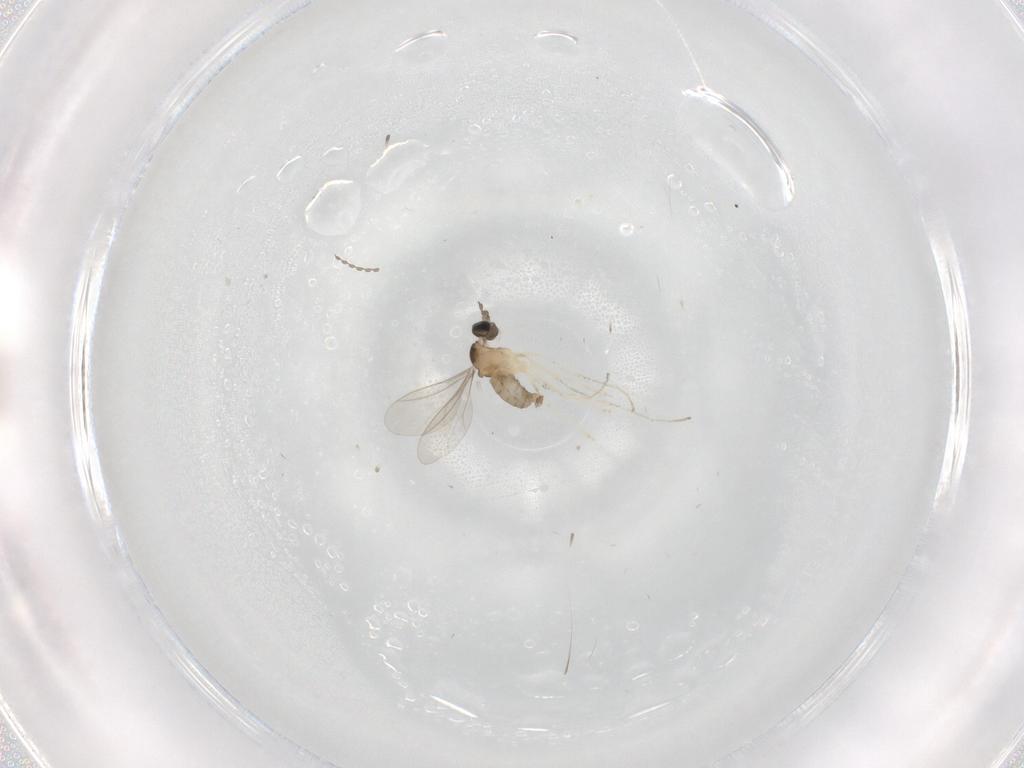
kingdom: Animalia
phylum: Arthropoda
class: Insecta
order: Diptera
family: Cecidomyiidae
